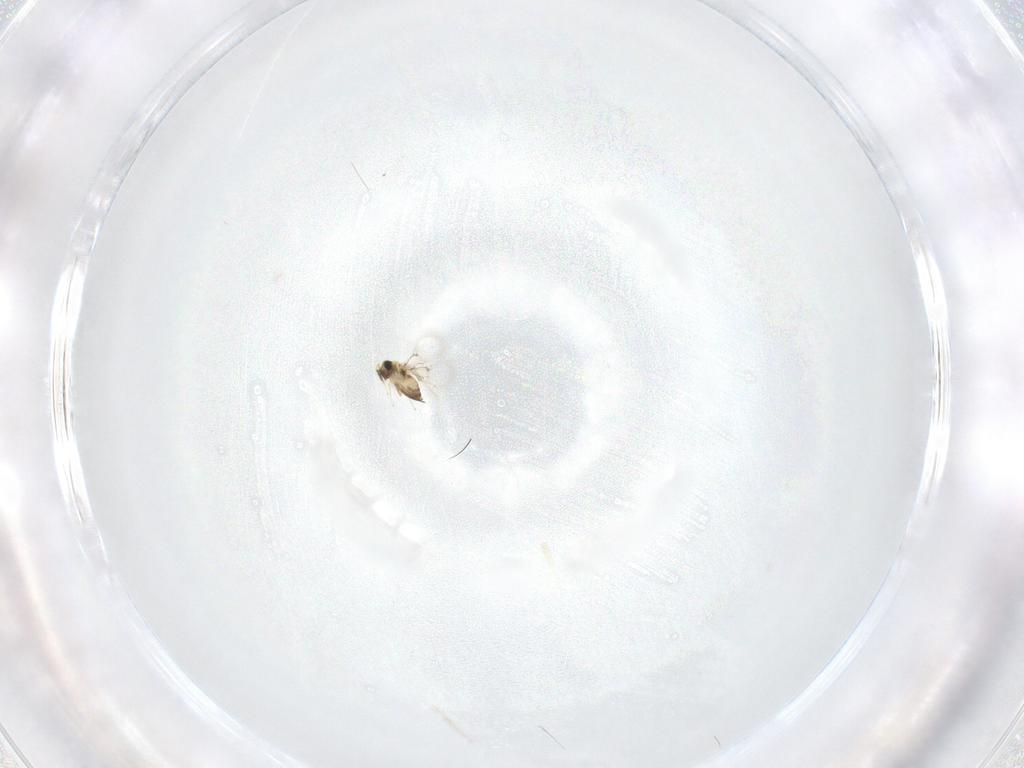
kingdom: Animalia
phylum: Arthropoda
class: Insecta
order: Hymenoptera
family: Trichogrammatidae
